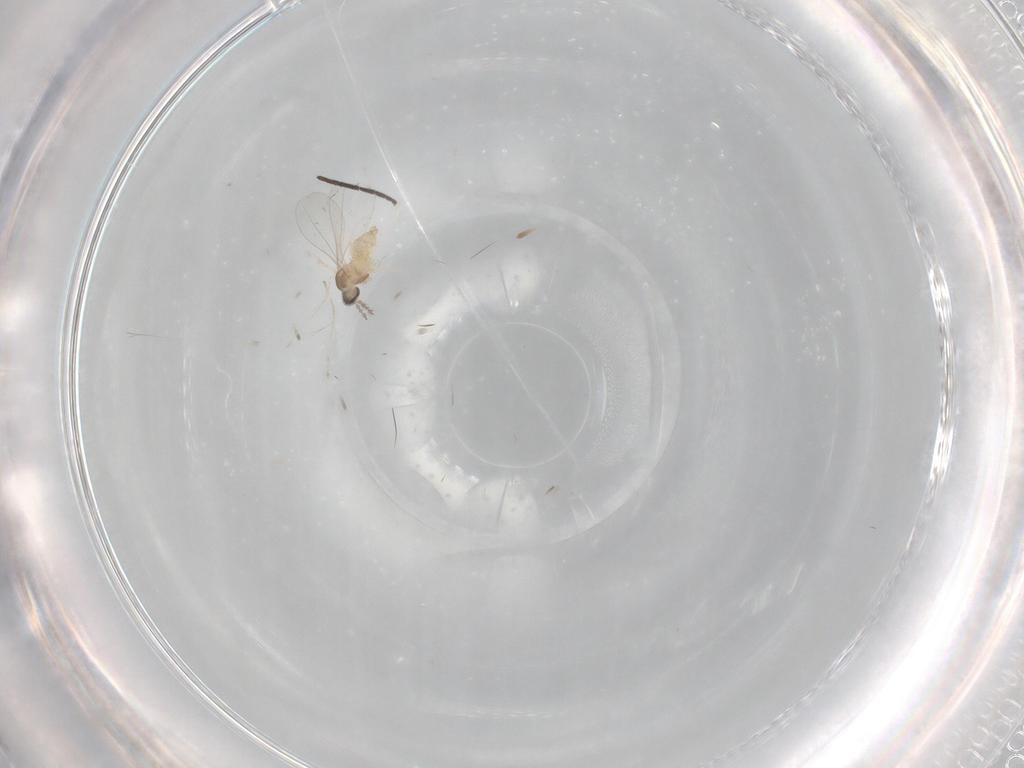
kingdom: Animalia
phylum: Arthropoda
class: Insecta
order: Diptera
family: Cecidomyiidae
